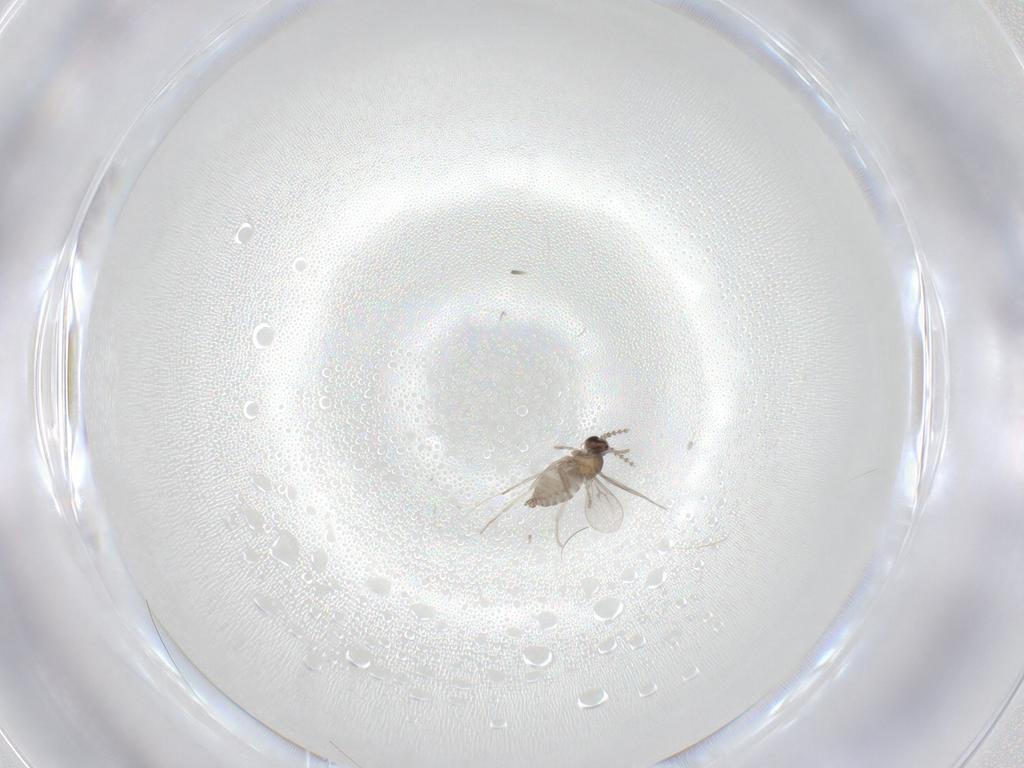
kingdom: Animalia
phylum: Arthropoda
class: Insecta
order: Diptera
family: Cecidomyiidae
